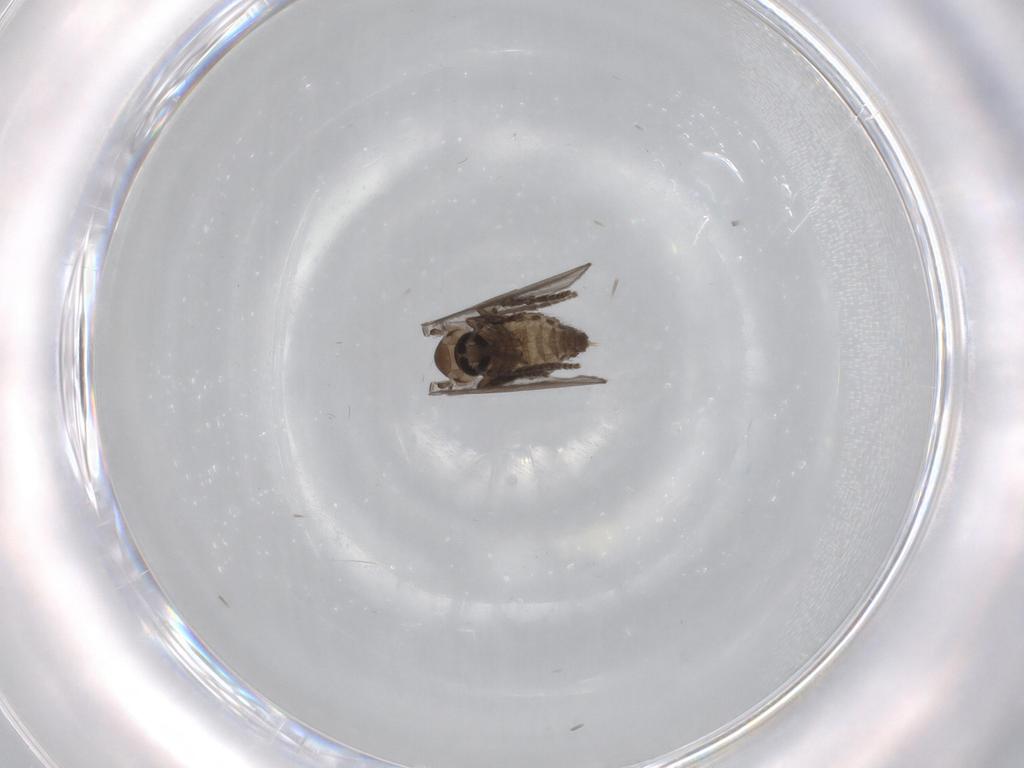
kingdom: Animalia
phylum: Arthropoda
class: Insecta
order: Diptera
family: Psychodidae
